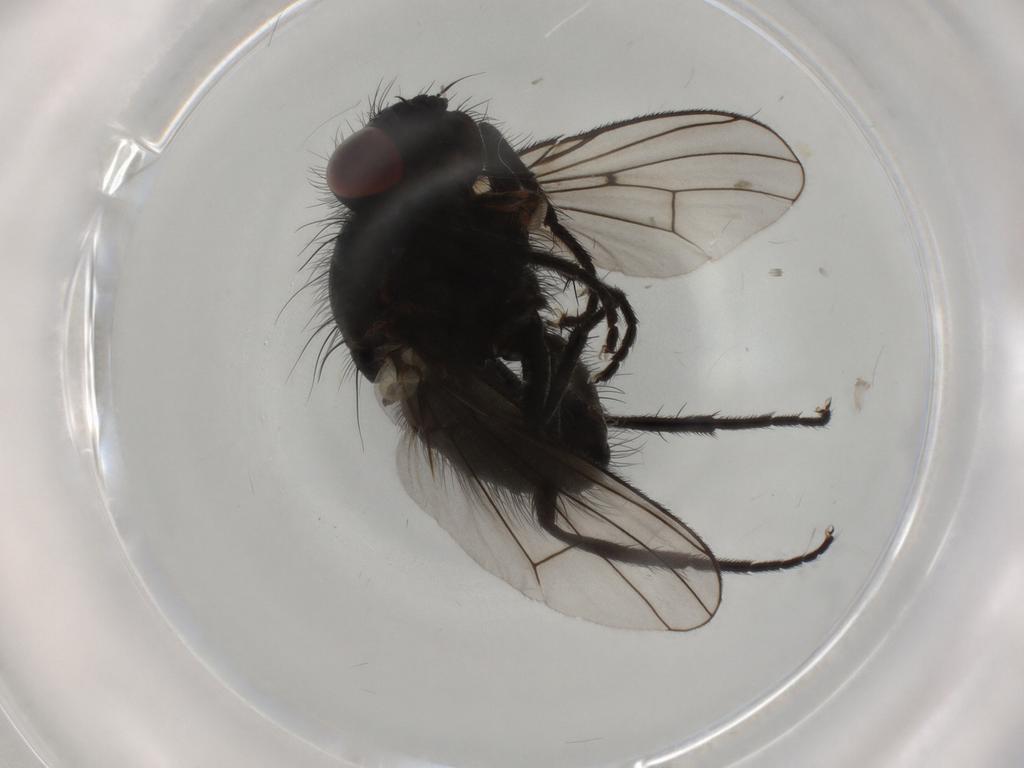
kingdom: Animalia
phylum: Arthropoda
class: Insecta
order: Diptera
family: Muscidae
